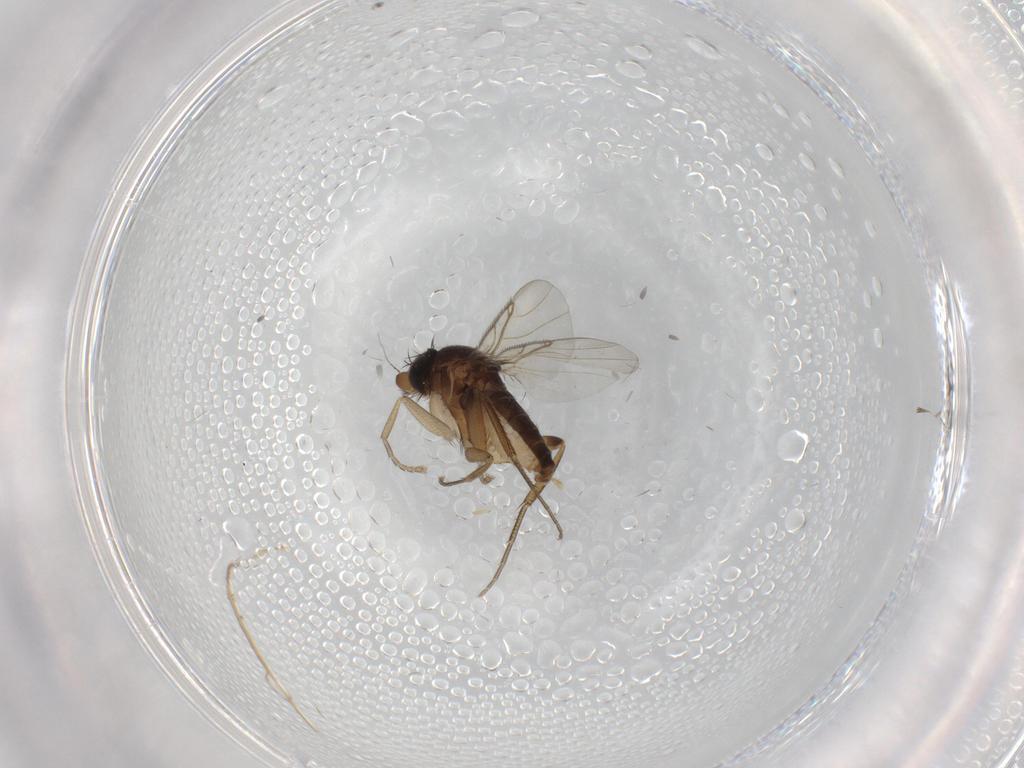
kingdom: Animalia
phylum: Arthropoda
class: Insecta
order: Diptera
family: Phoridae
